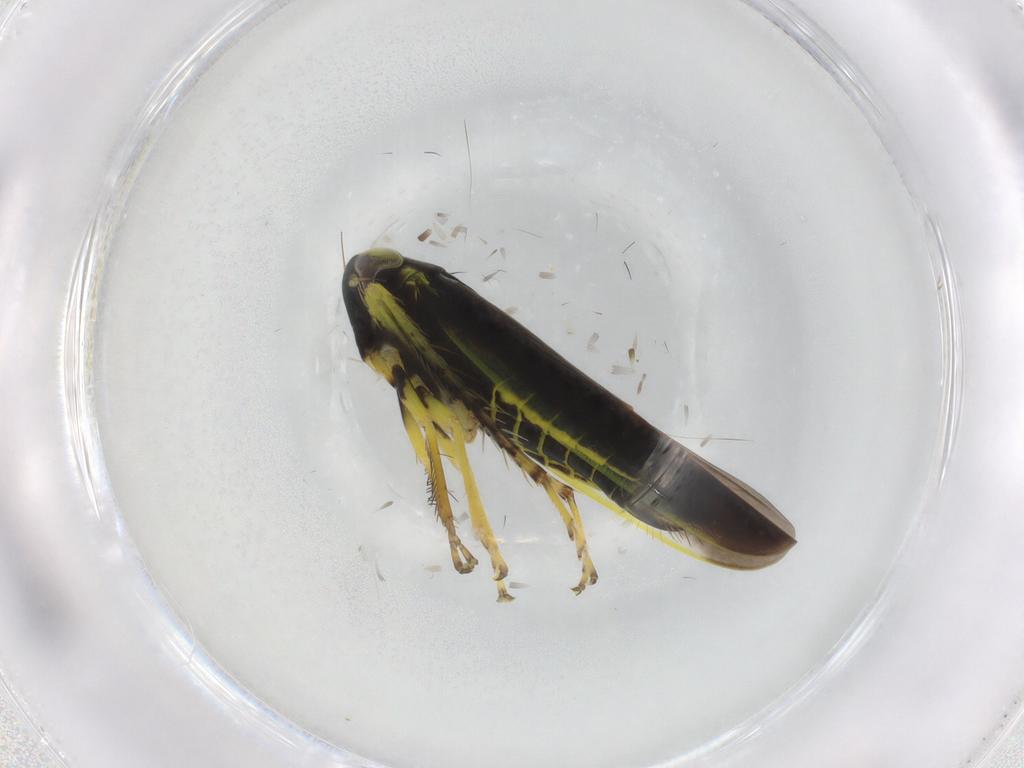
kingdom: Animalia
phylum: Arthropoda
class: Insecta
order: Hemiptera
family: Cicadellidae
